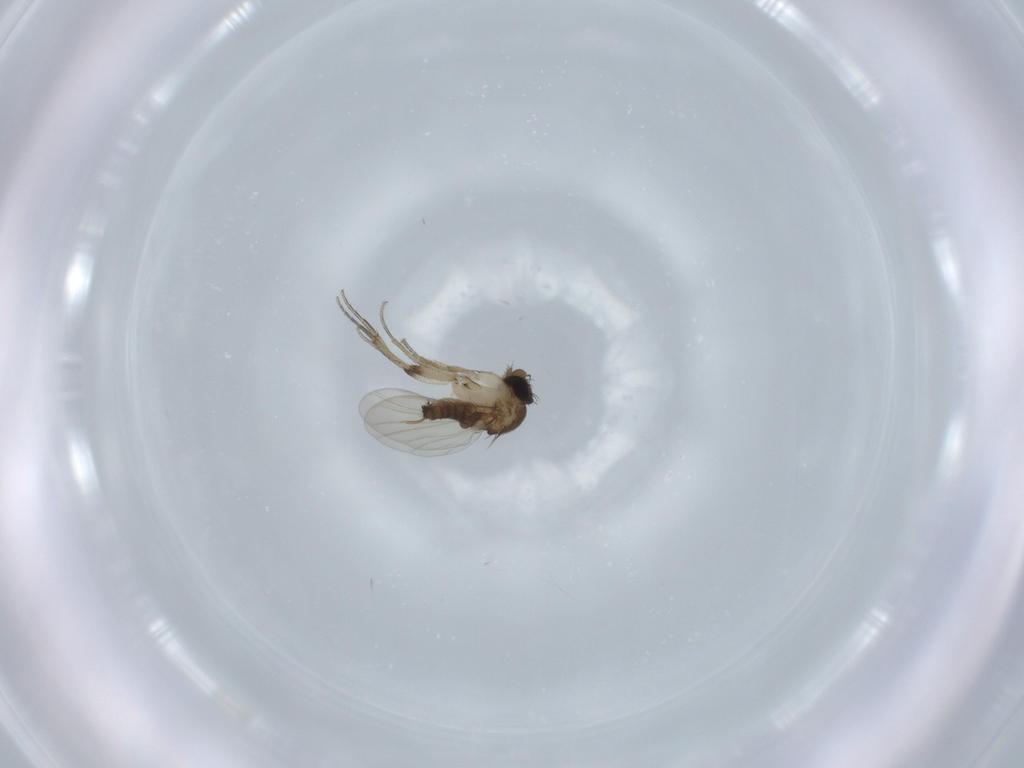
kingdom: Animalia
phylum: Arthropoda
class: Insecta
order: Diptera
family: Phoridae
